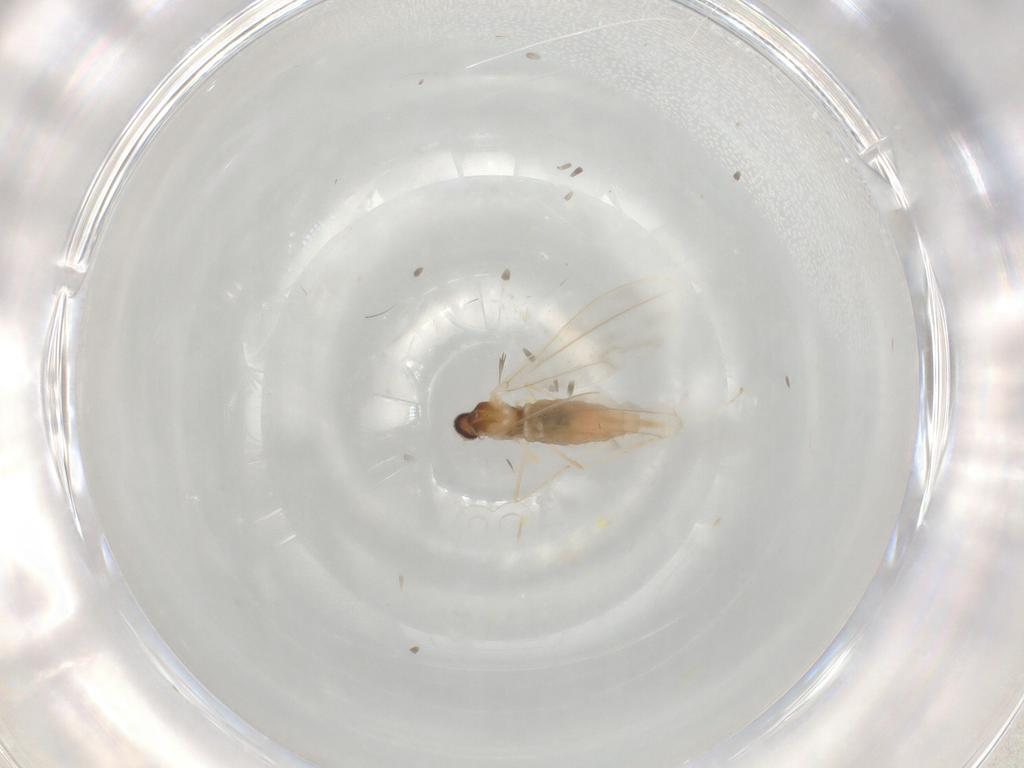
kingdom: Animalia
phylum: Arthropoda
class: Insecta
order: Diptera
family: Cecidomyiidae
